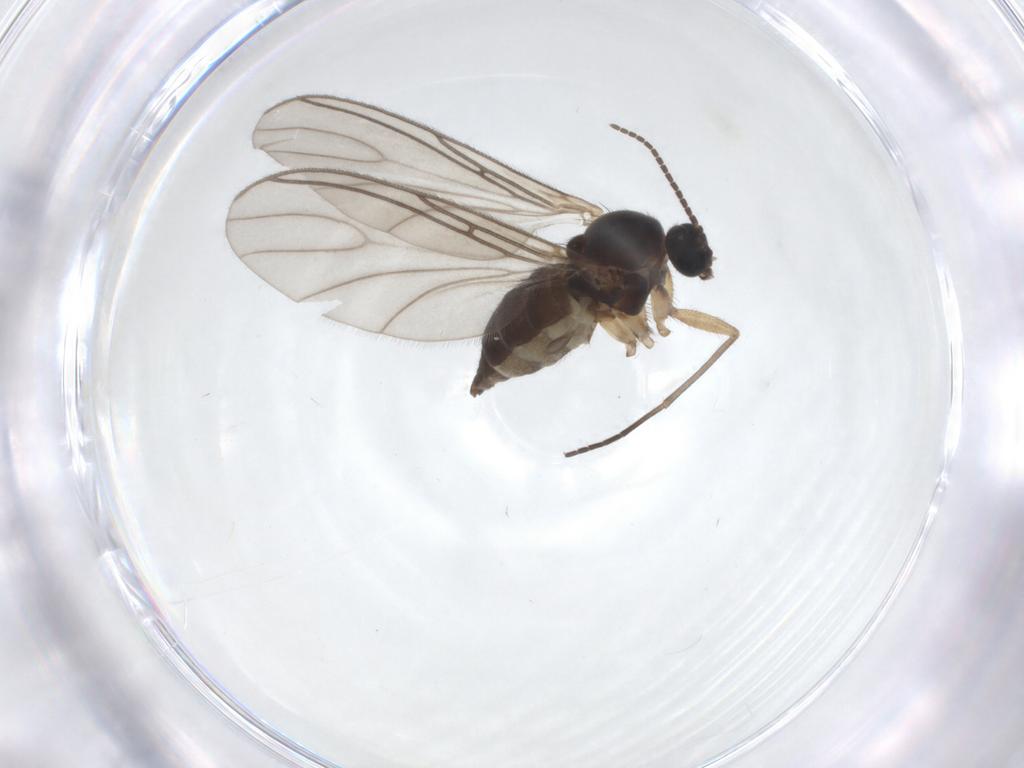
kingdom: Animalia
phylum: Arthropoda
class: Insecta
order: Diptera
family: Sciaridae
